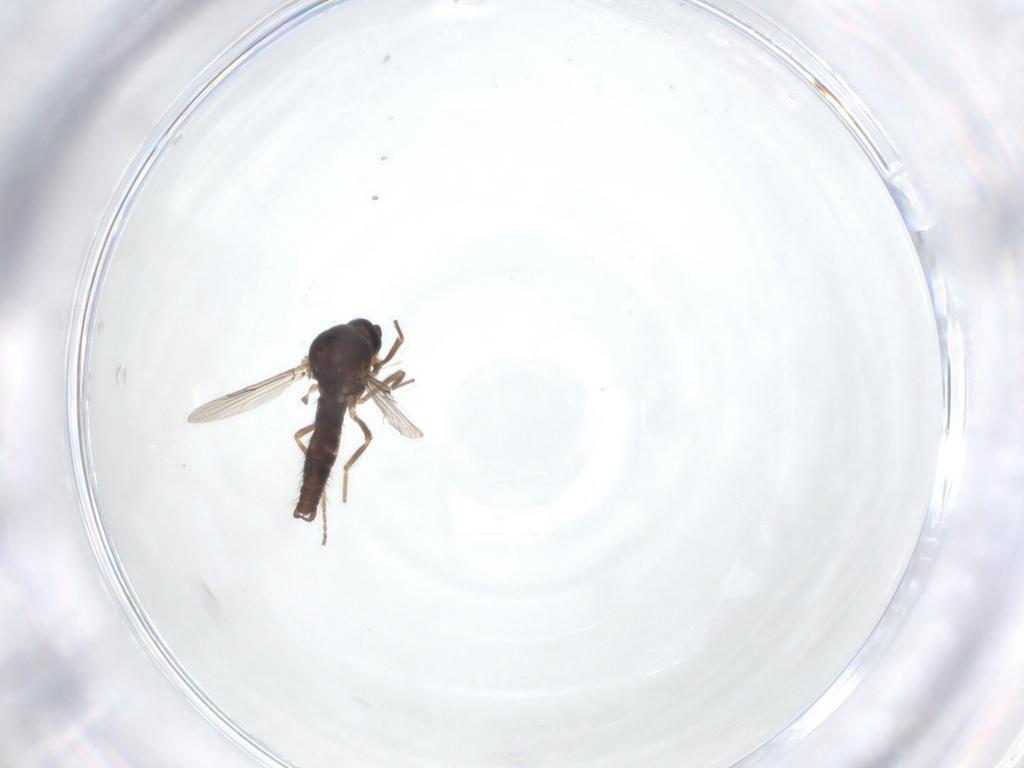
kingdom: Animalia
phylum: Arthropoda
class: Insecta
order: Diptera
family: Ceratopogonidae
